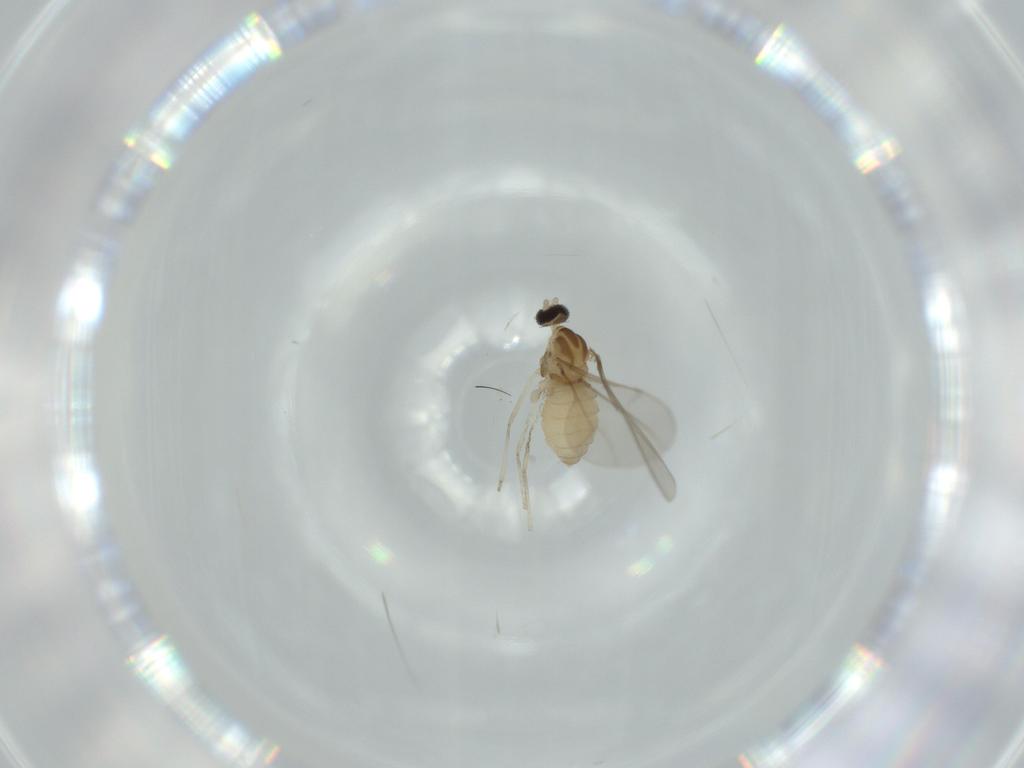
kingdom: Animalia
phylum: Arthropoda
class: Insecta
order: Diptera
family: Cecidomyiidae
